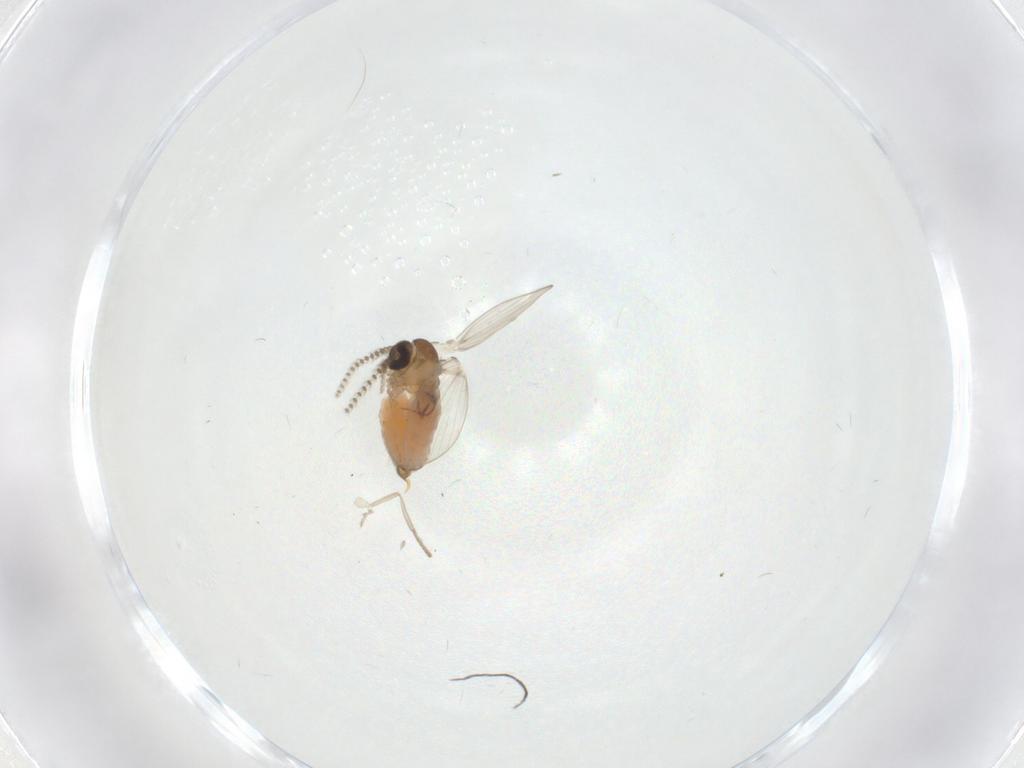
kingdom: Animalia
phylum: Arthropoda
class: Insecta
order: Diptera
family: Psychodidae
